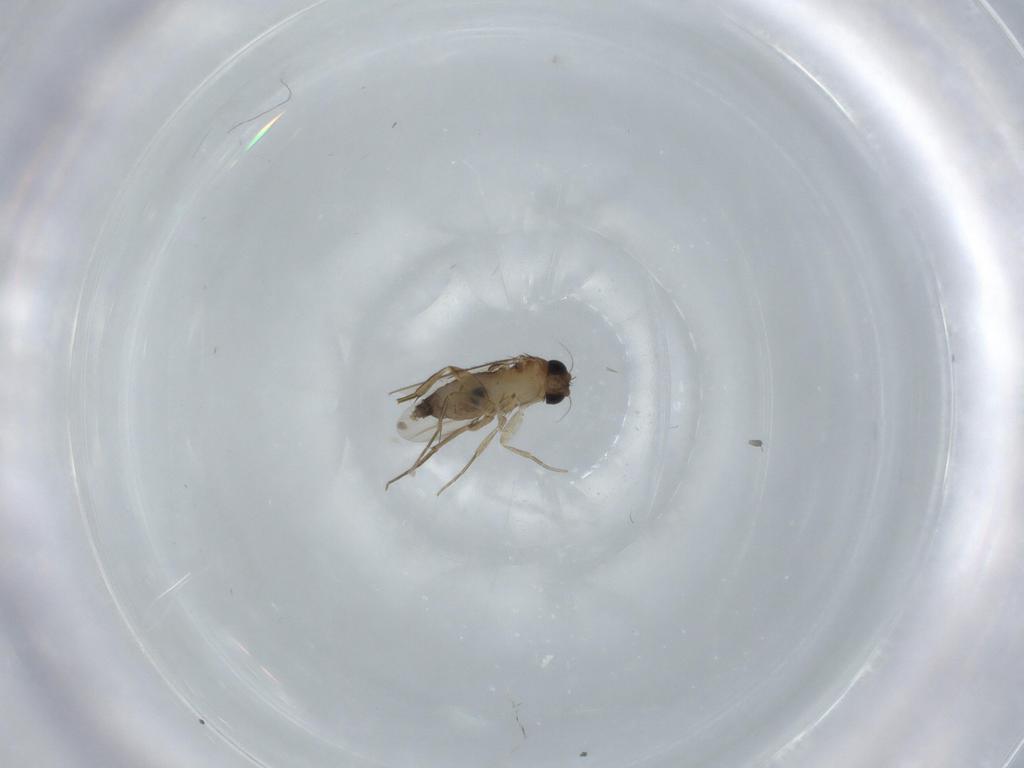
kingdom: Animalia
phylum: Arthropoda
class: Insecta
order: Diptera
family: Phoridae
